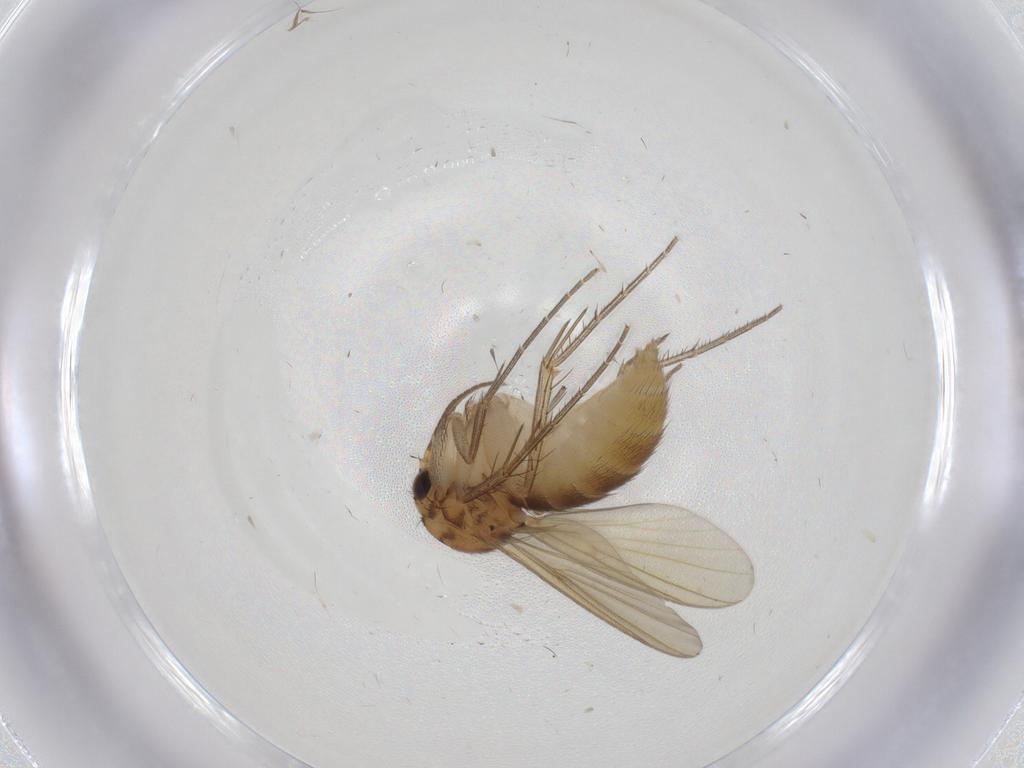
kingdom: Animalia
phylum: Arthropoda
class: Insecta
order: Diptera
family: Mycetophilidae
